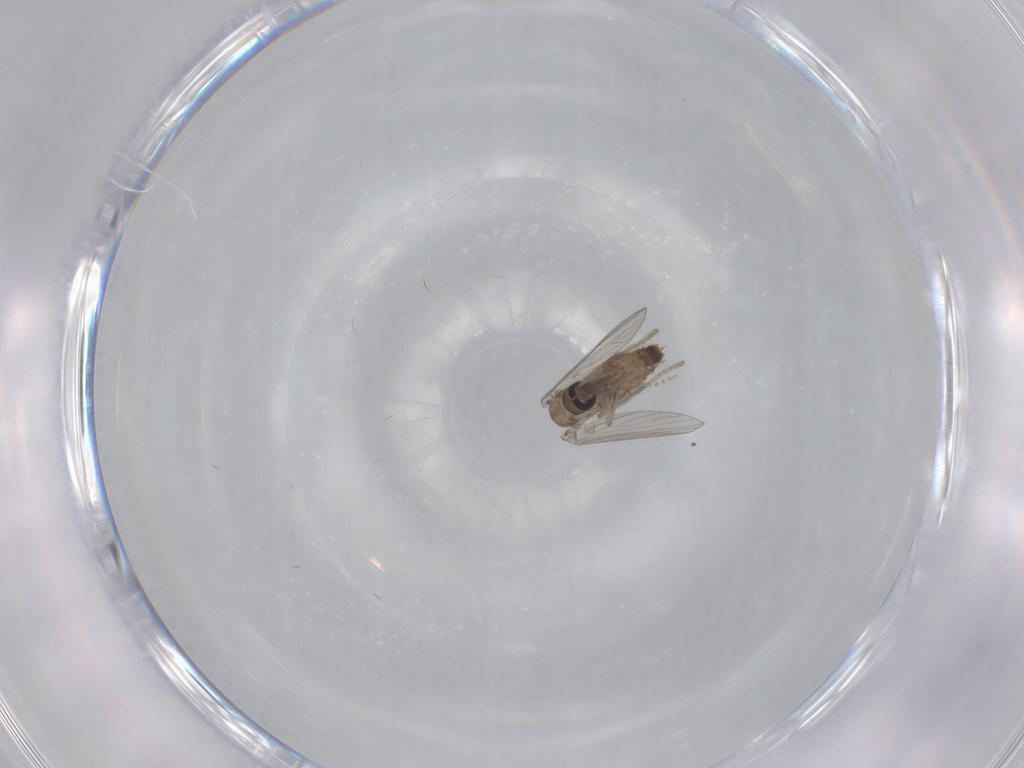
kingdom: Animalia
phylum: Arthropoda
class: Insecta
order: Diptera
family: Psychodidae
